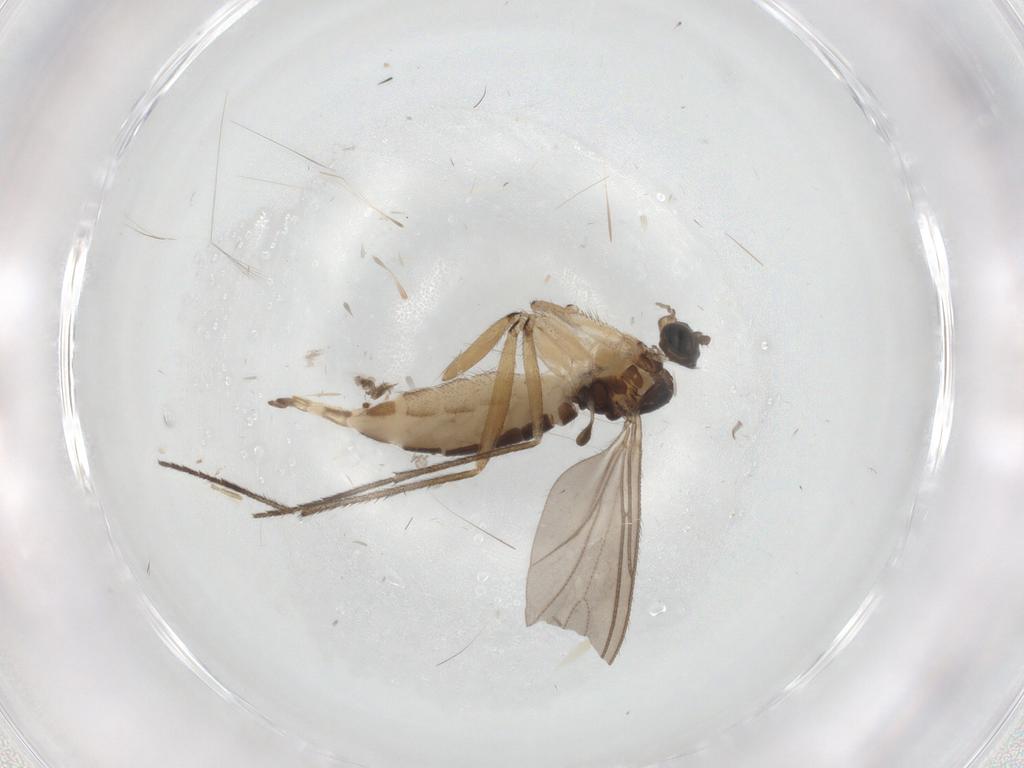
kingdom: Animalia
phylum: Arthropoda
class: Insecta
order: Diptera
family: Sciaridae
